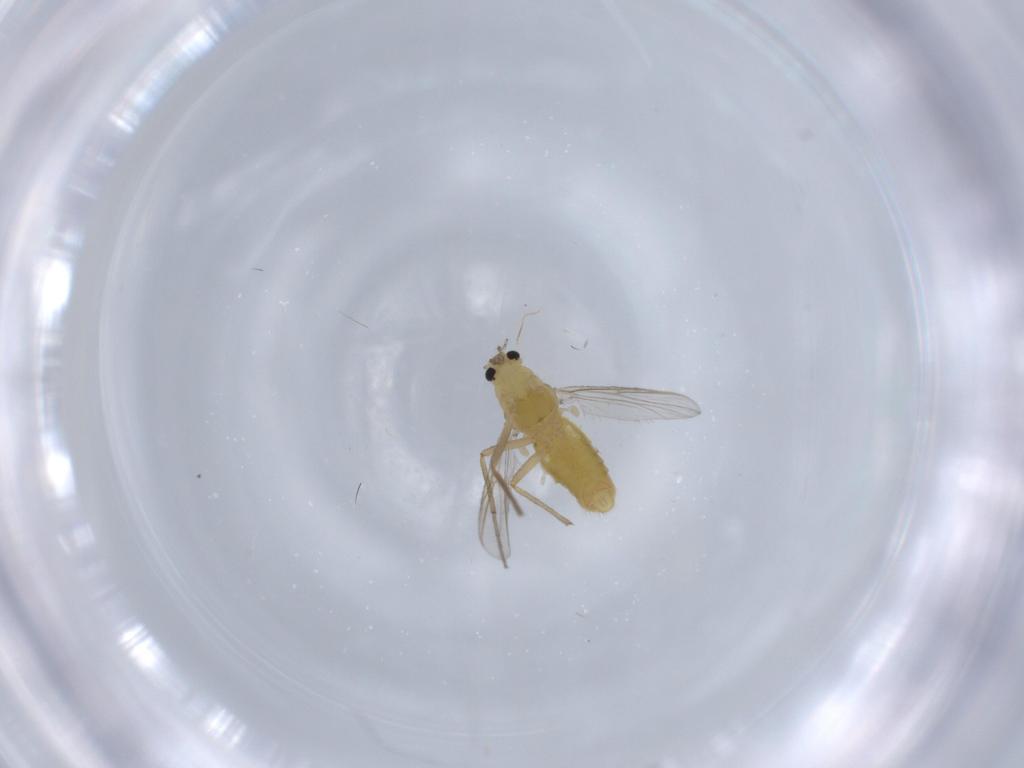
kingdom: Animalia
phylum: Arthropoda
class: Insecta
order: Diptera
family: Chironomidae
